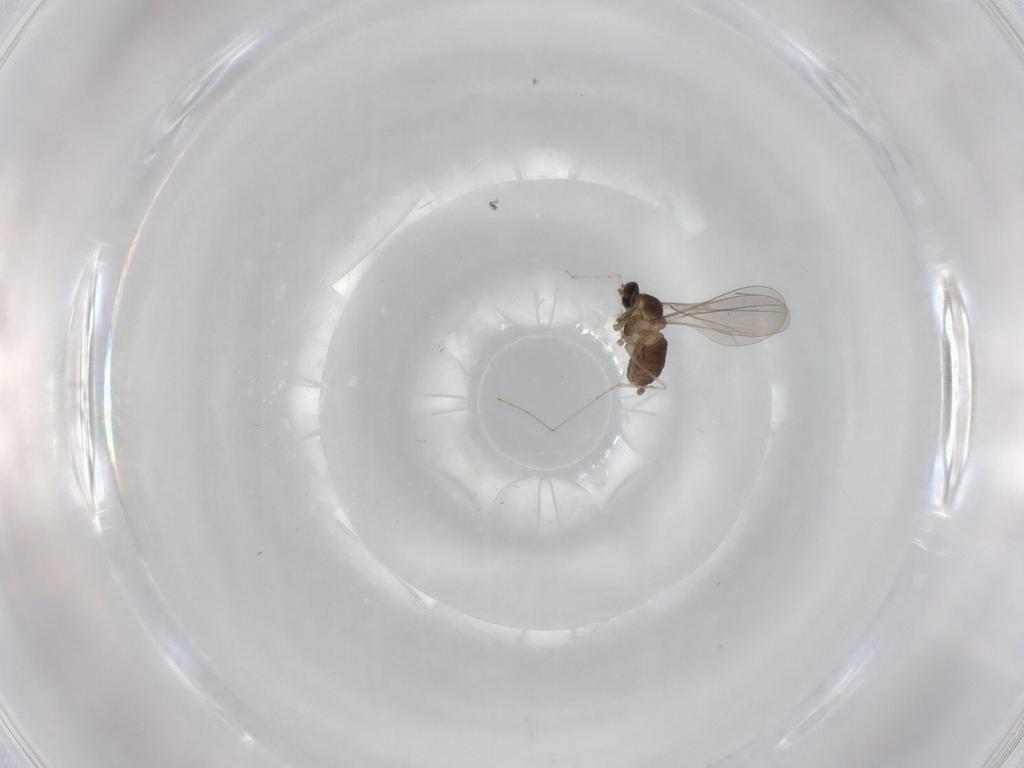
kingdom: Animalia
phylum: Arthropoda
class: Insecta
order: Diptera
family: Cecidomyiidae
